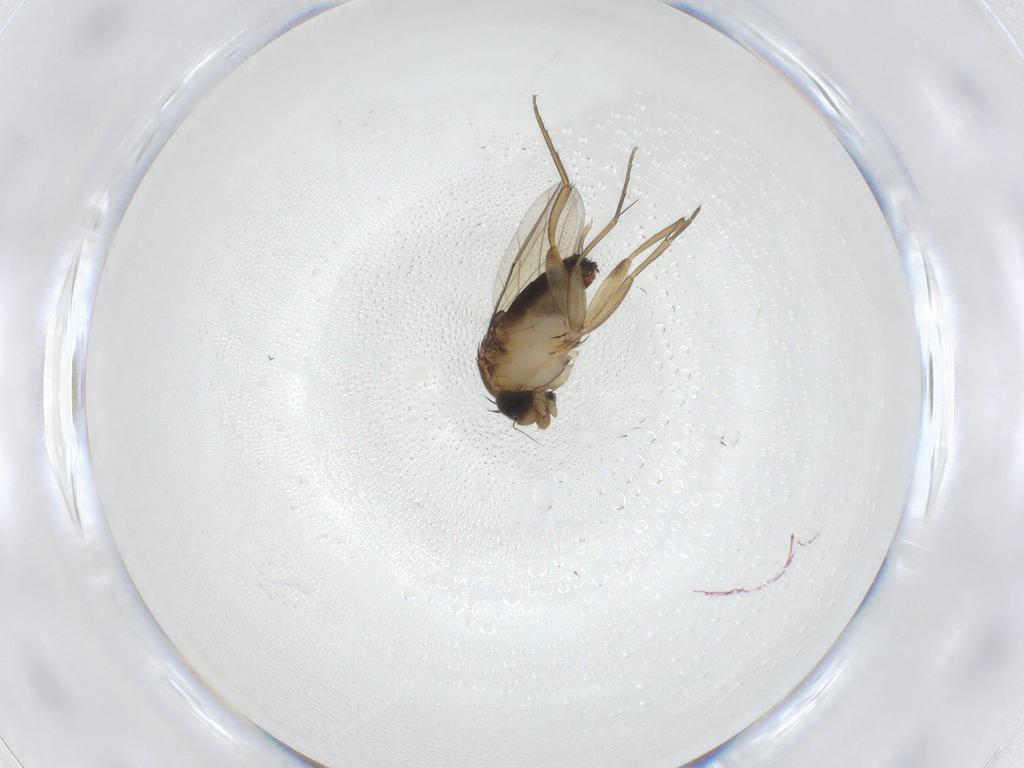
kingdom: Animalia
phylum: Arthropoda
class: Insecta
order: Diptera
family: Phoridae
